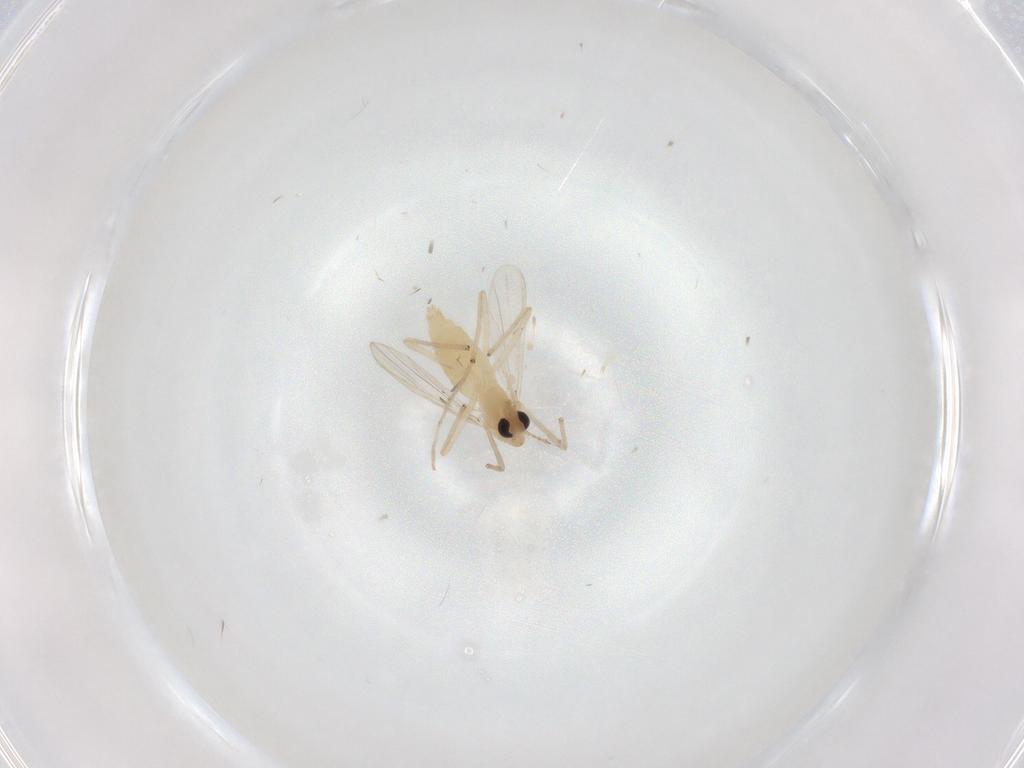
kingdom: Animalia
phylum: Arthropoda
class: Insecta
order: Diptera
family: Chironomidae
